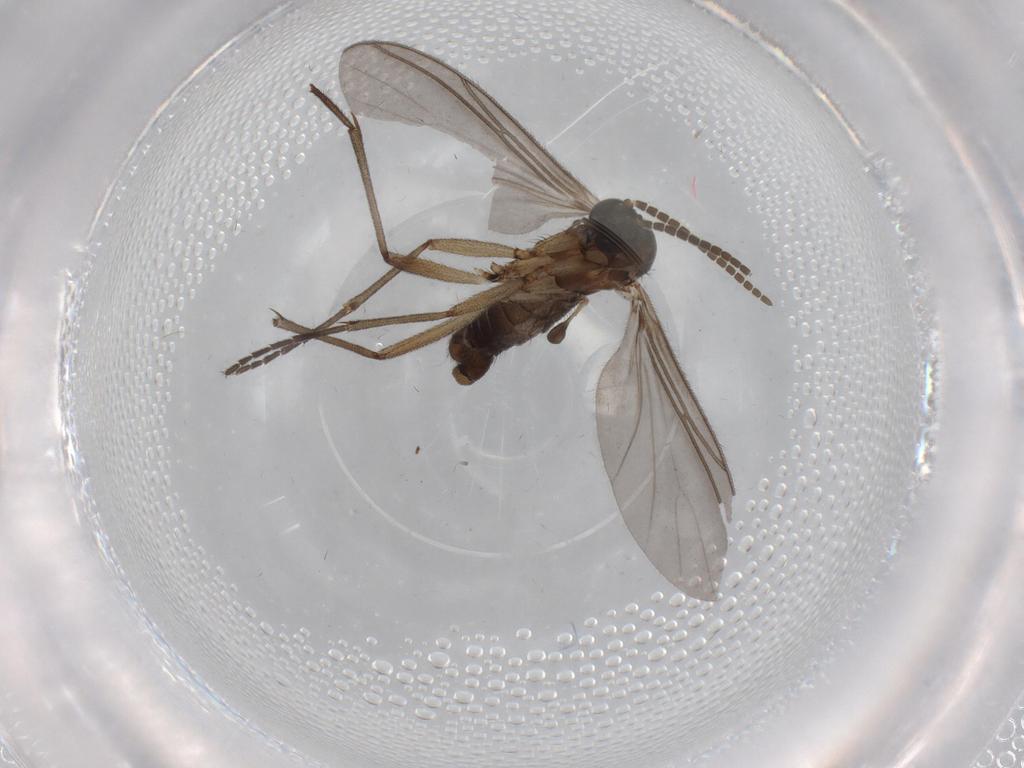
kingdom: Animalia
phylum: Arthropoda
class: Insecta
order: Diptera
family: Sciaridae
